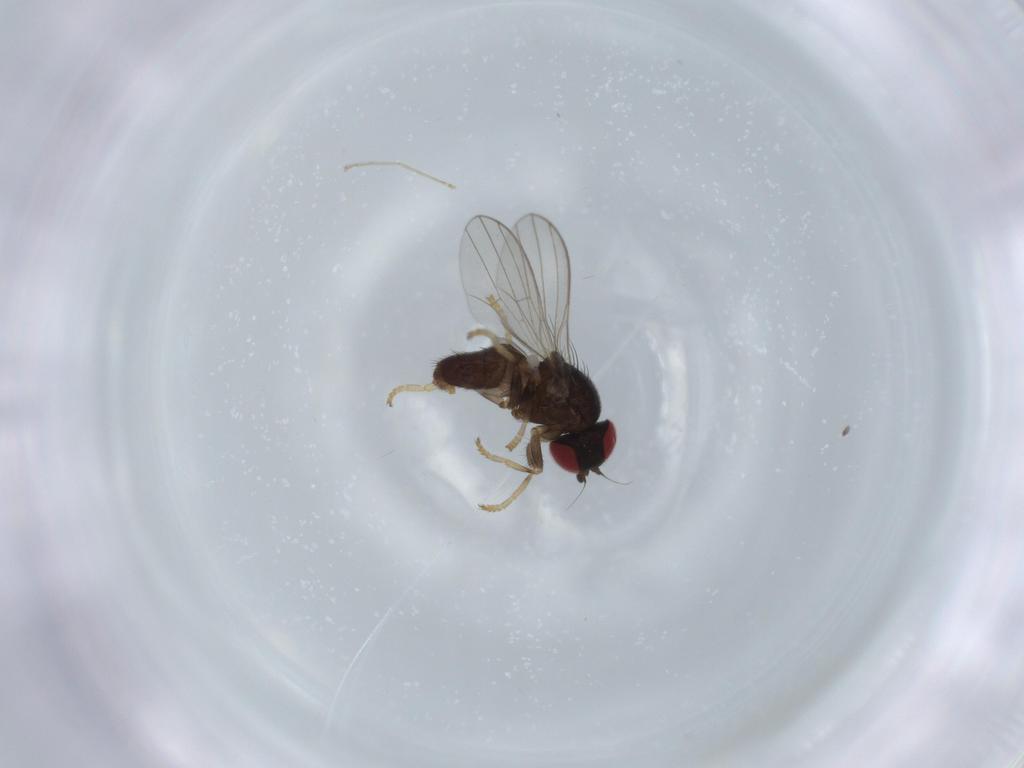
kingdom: Animalia
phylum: Arthropoda
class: Insecta
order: Diptera
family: Chamaemyiidae
